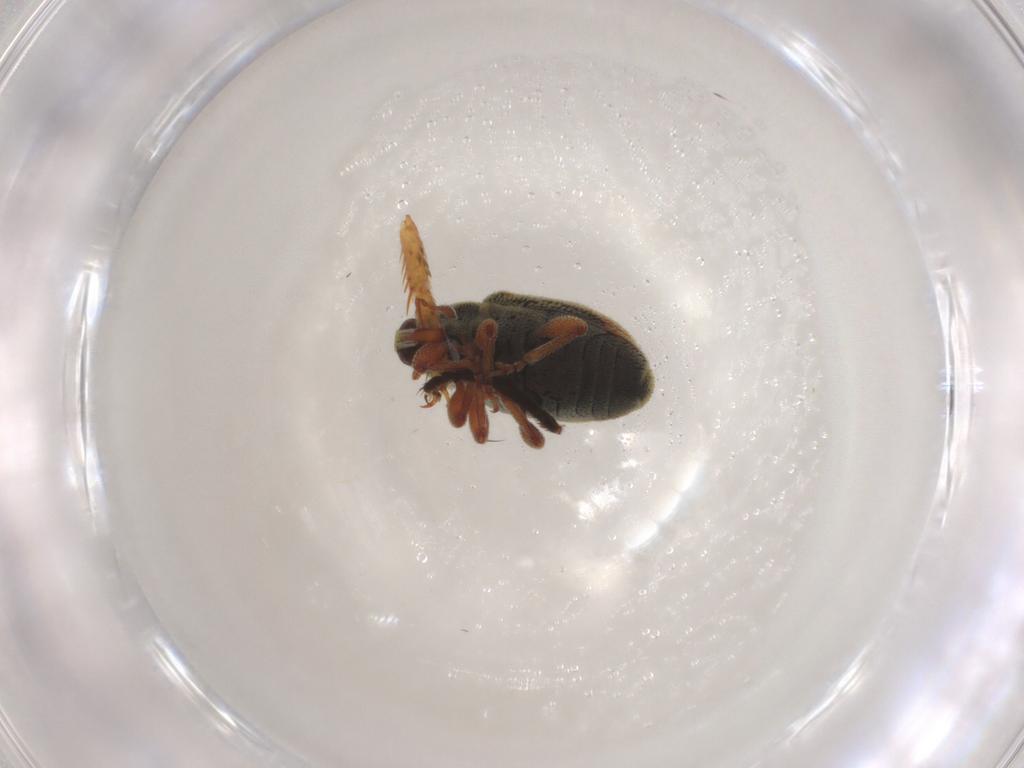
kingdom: Animalia
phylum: Arthropoda
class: Insecta
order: Coleoptera
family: Curculionidae
